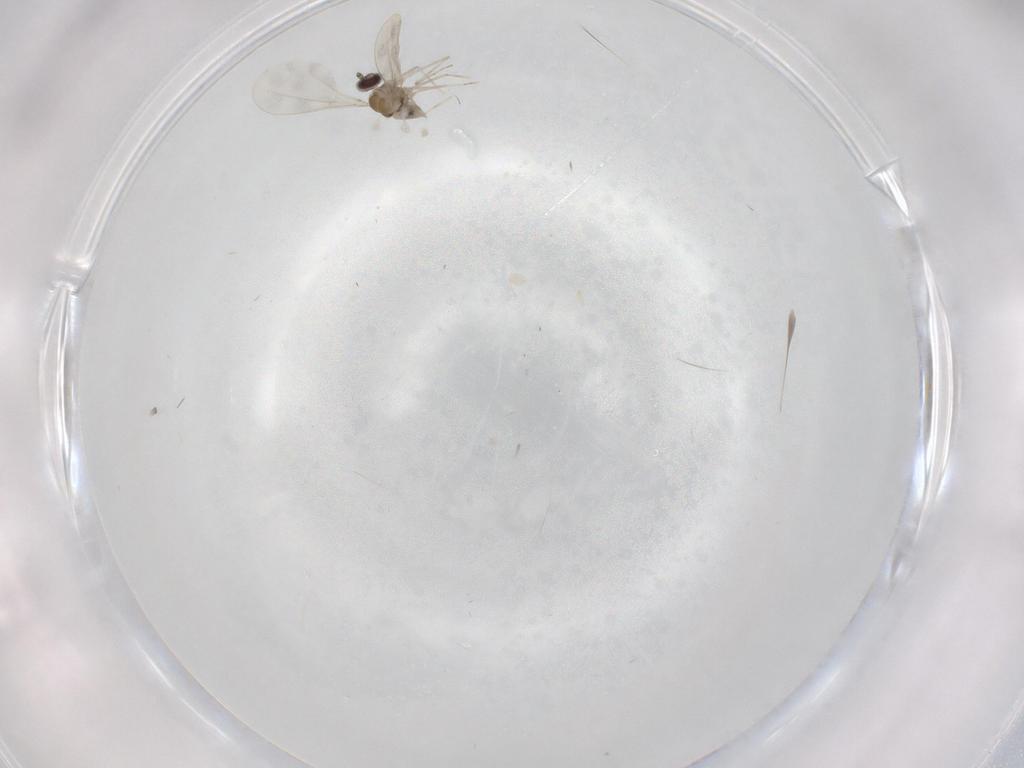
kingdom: Animalia
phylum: Arthropoda
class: Insecta
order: Diptera
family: Cecidomyiidae
